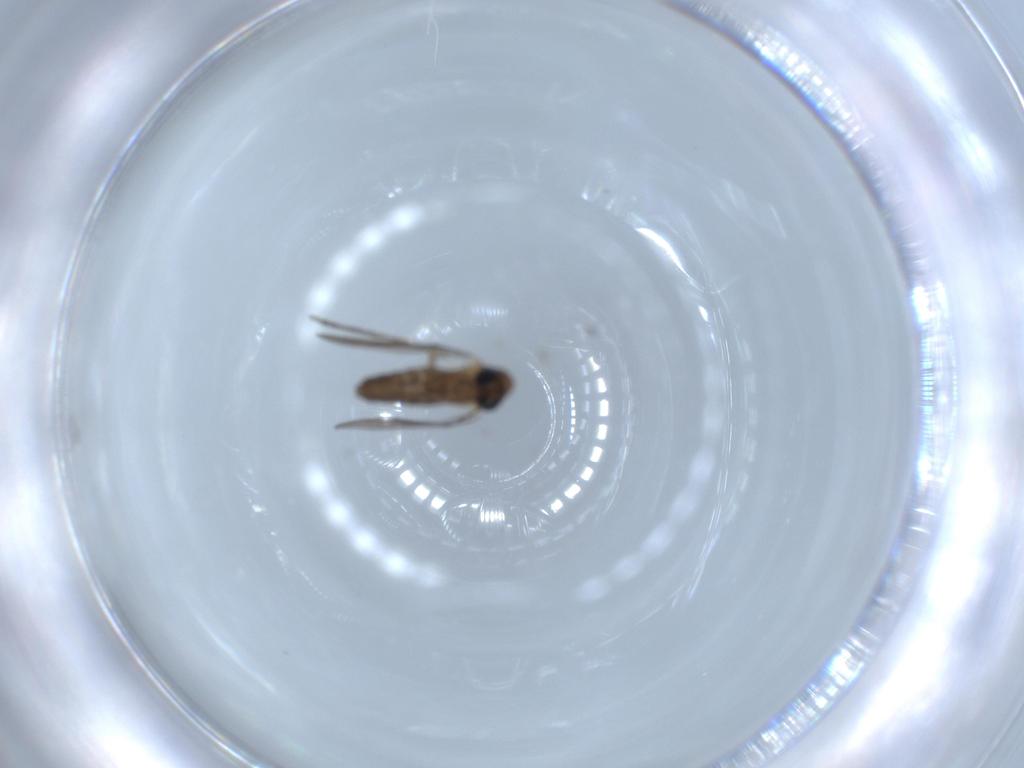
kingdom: Animalia
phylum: Arthropoda
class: Insecta
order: Diptera
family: Psychodidae
